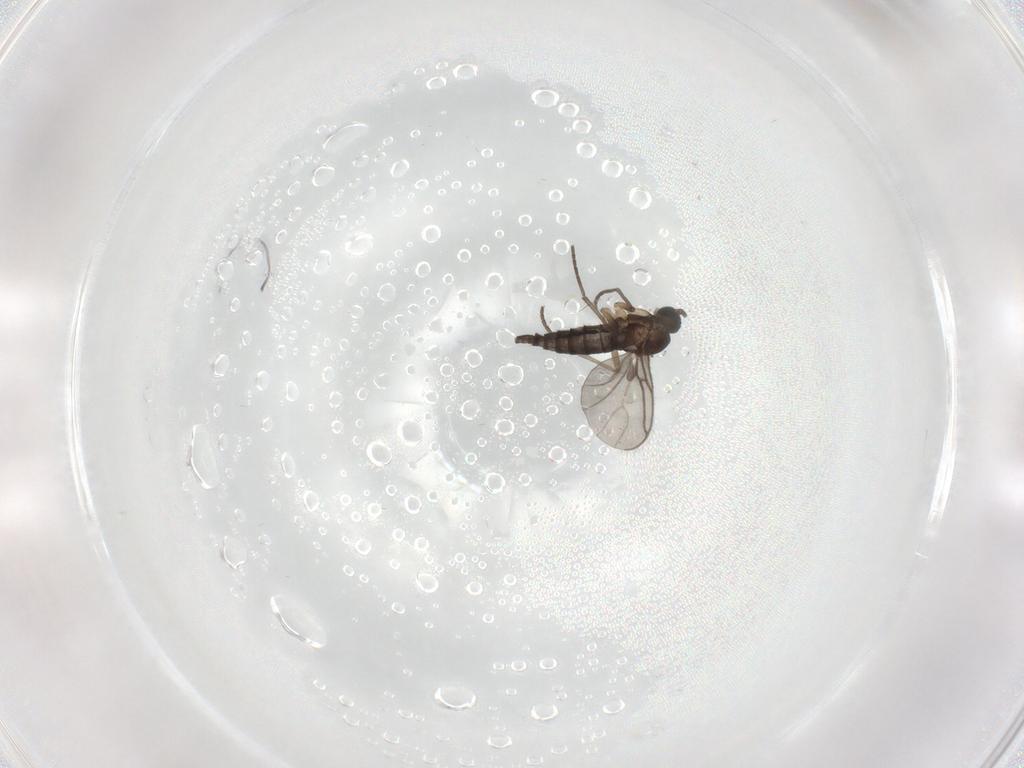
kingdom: Animalia
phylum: Arthropoda
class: Insecta
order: Diptera
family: Sciaridae
